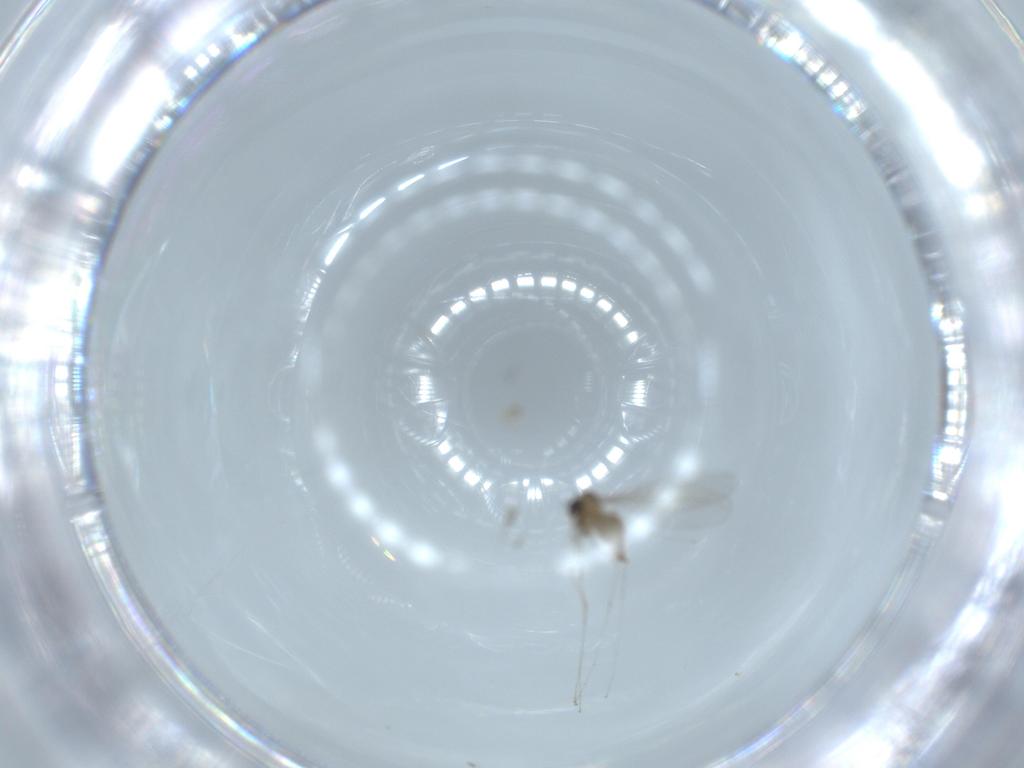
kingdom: Animalia
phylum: Arthropoda
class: Insecta
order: Diptera
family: Cecidomyiidae
